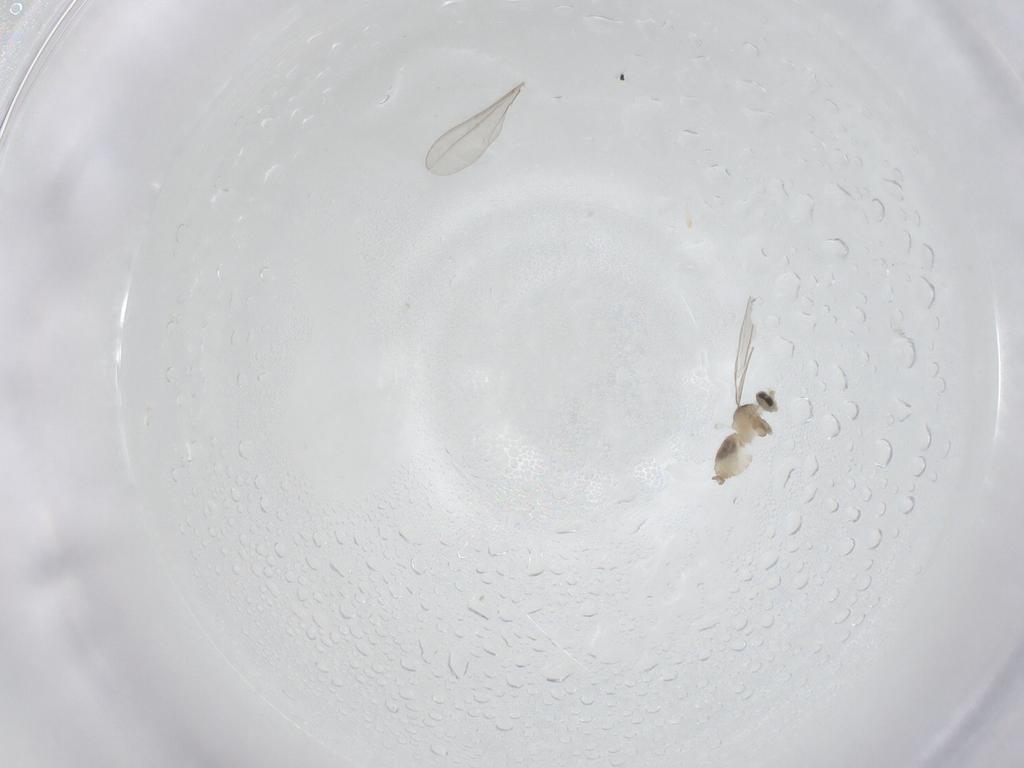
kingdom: Animalia
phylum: Arthropoda
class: Insecta
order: Diptera
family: Cecidomyiidae
